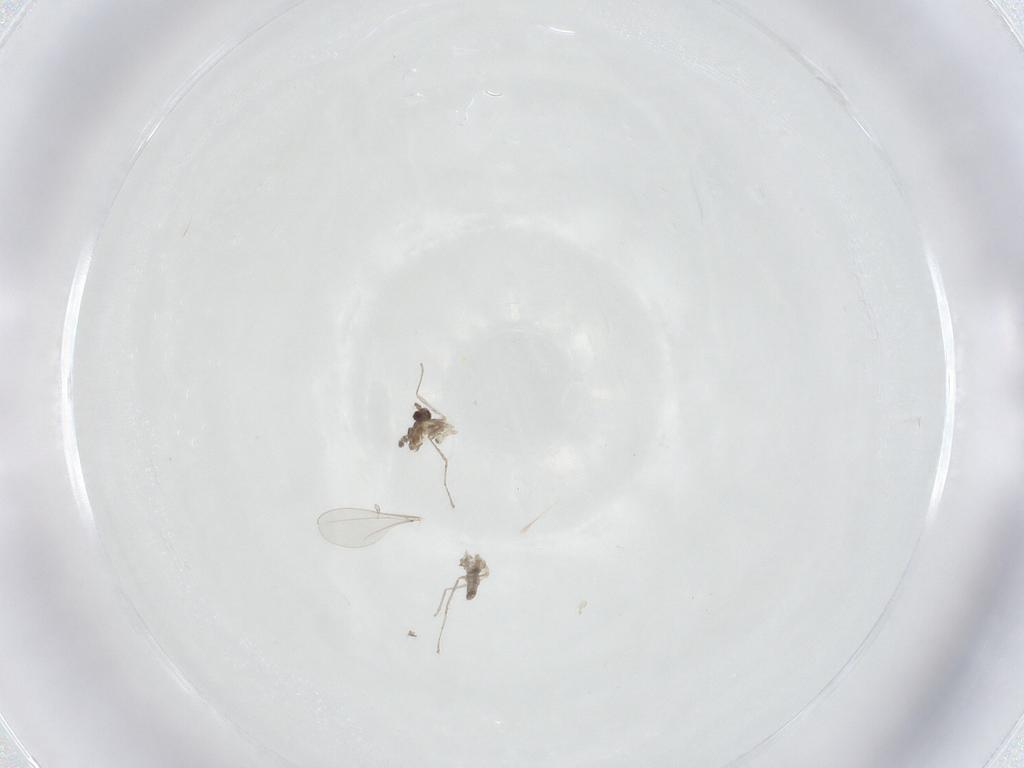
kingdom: Animalia
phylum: Arthropoda
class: Insecta
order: Diptera
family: Cecidomyiidae
